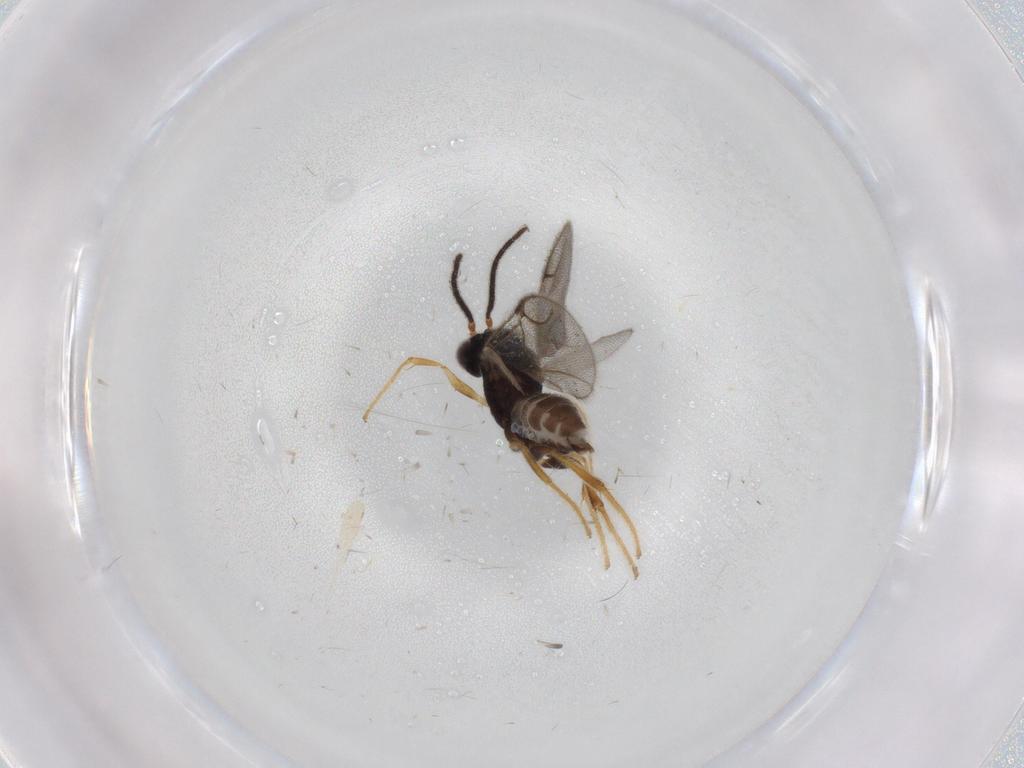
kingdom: Animalia
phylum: Arthropoda
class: Insecta
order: Hymenoptera
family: Dryinidae
